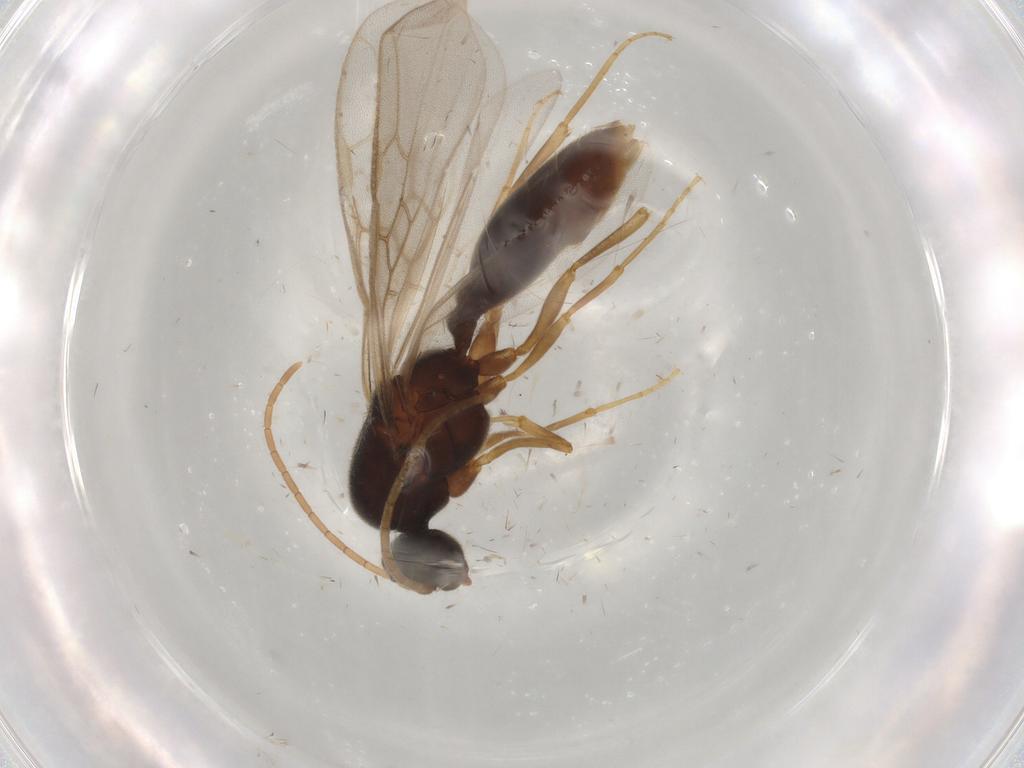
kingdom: Animalia
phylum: Arthropoda
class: Insecta
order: Hymenoptera
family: Formicidae
